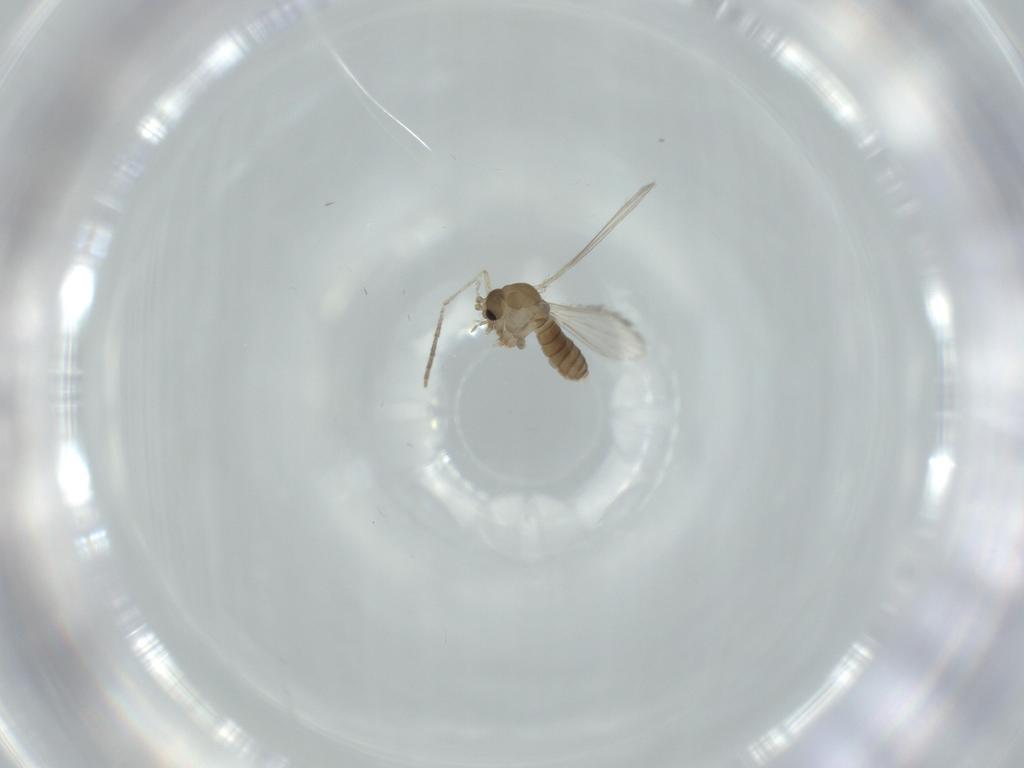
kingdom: Animalia
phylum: Arthropoda
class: Insecta
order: Diptera
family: Psychodidae
